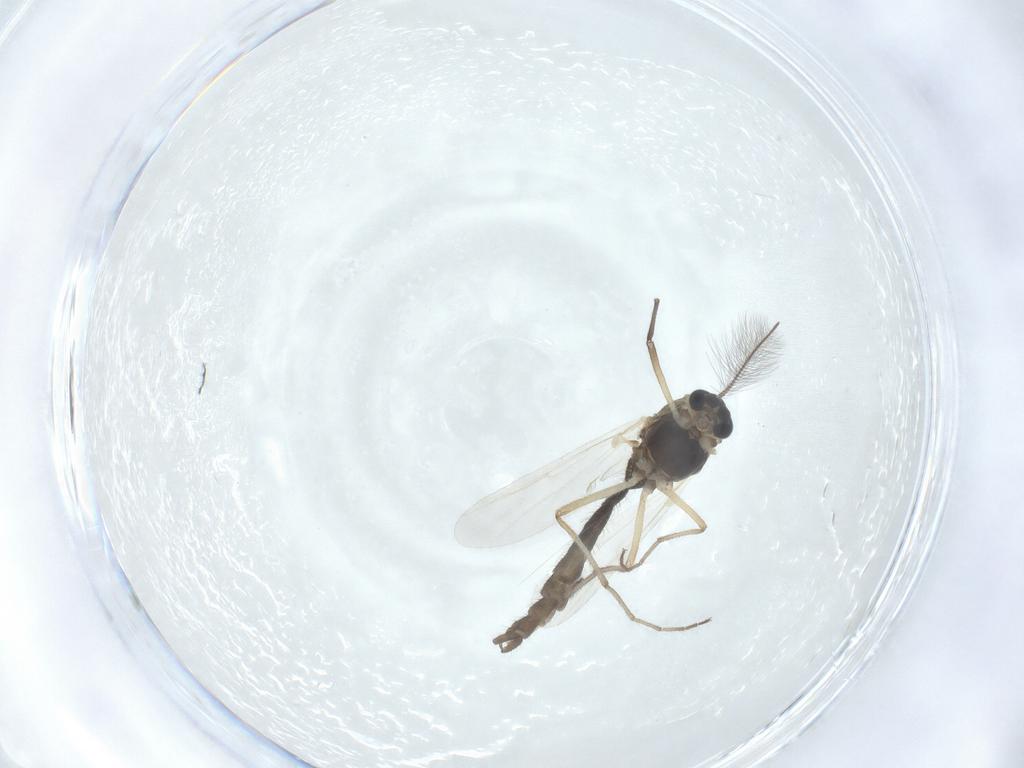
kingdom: Animalia
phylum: Arthropoda
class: Insecta
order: Diptera
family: Chironomidae
